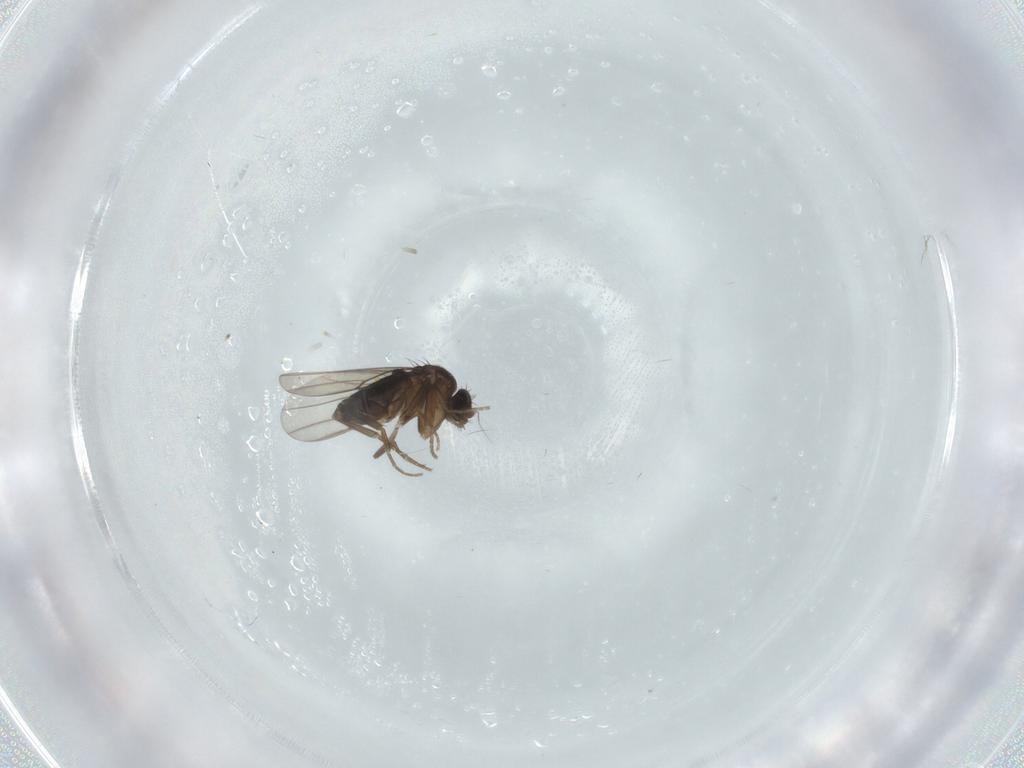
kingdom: Animalia
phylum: Arthropoda
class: Insecta
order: Diptera
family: Phoridae
